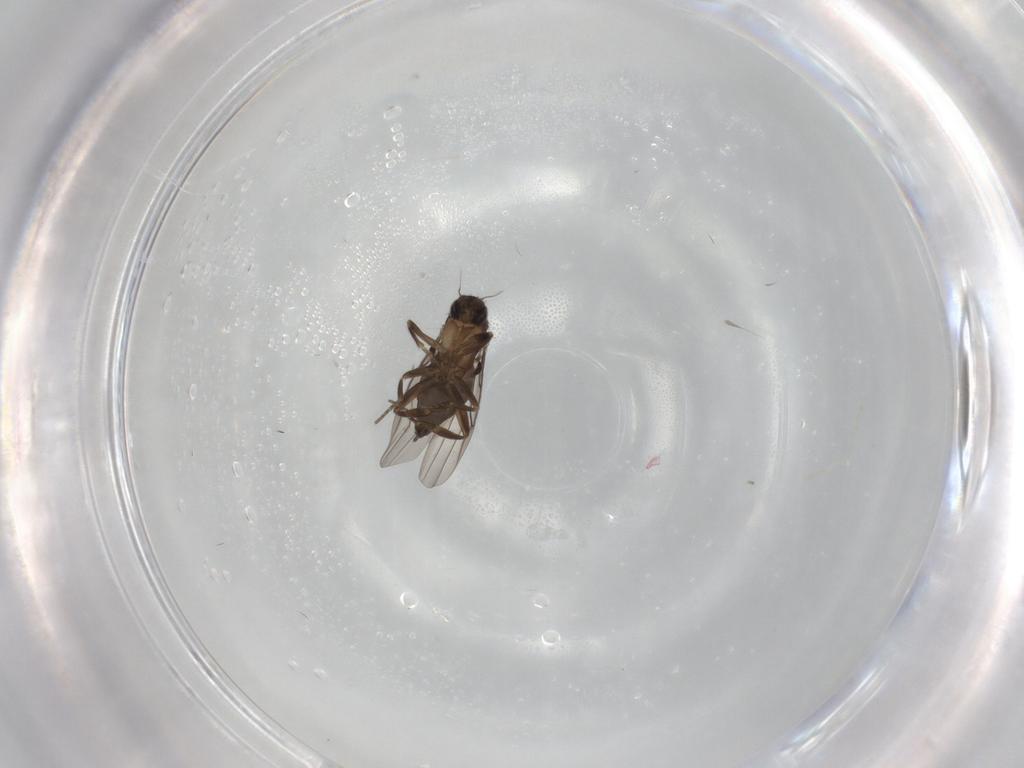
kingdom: Animalia
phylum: Arthropoda
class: Insecta
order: Diptera
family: Phoridae
